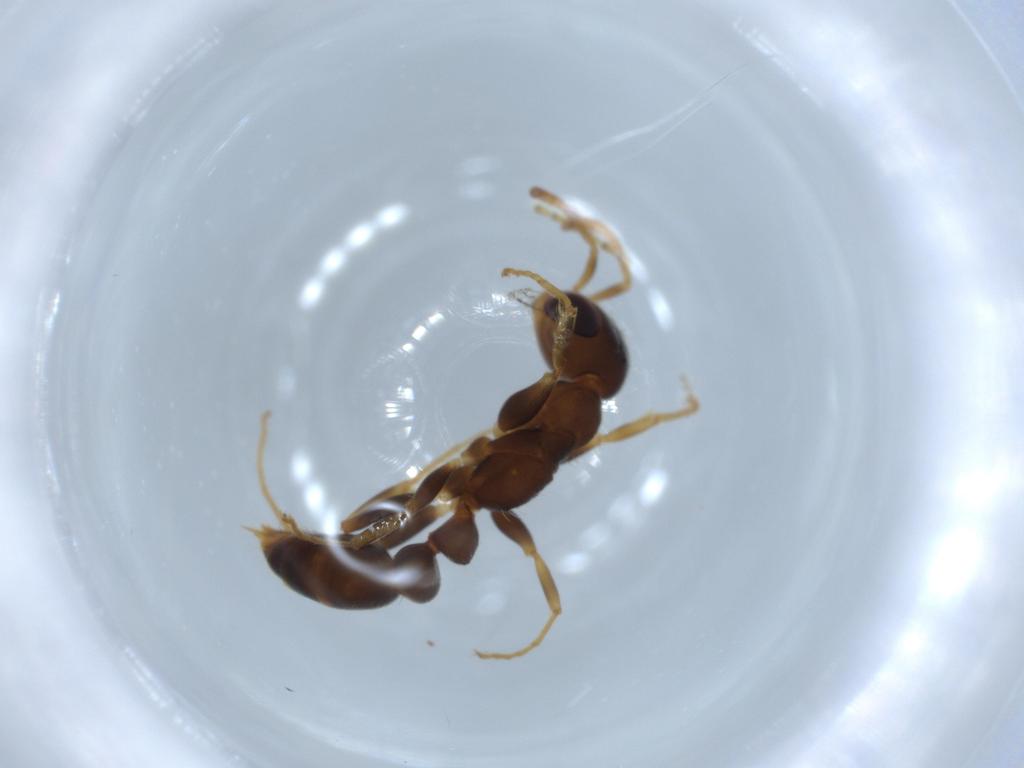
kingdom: Animalia
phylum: Arthropoda
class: Insecta
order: Hymenoptera
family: Formicidae
